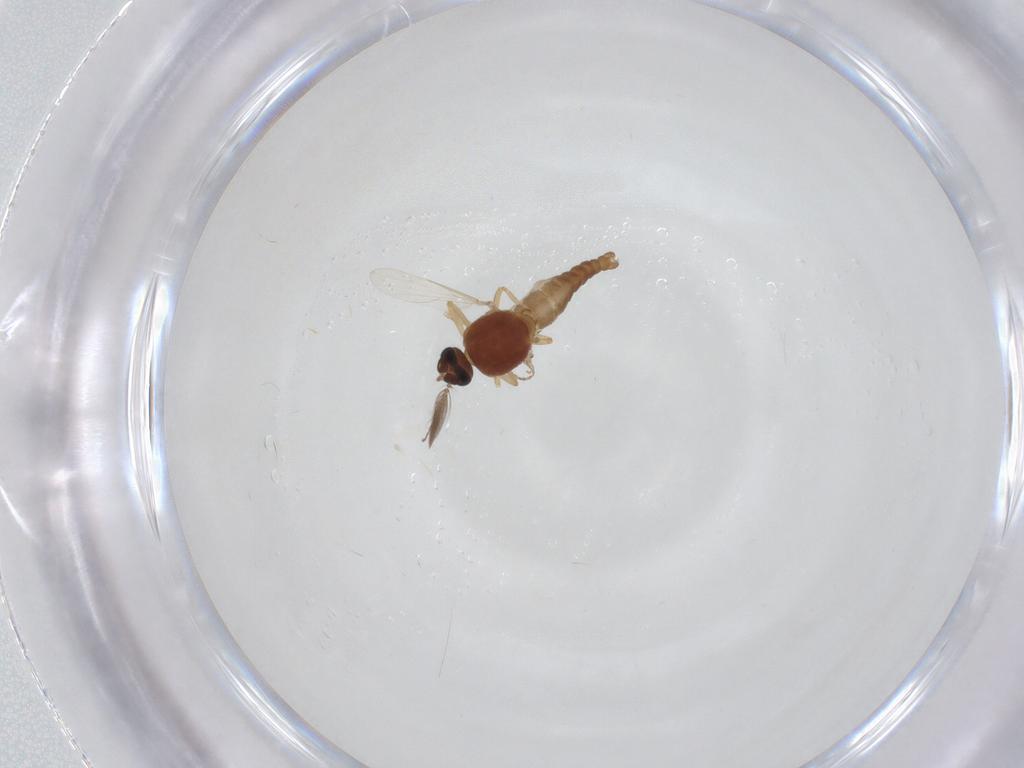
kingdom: Animalia
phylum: Arthropoda
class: Insecta
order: Diptera
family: Ceratopogonidae
